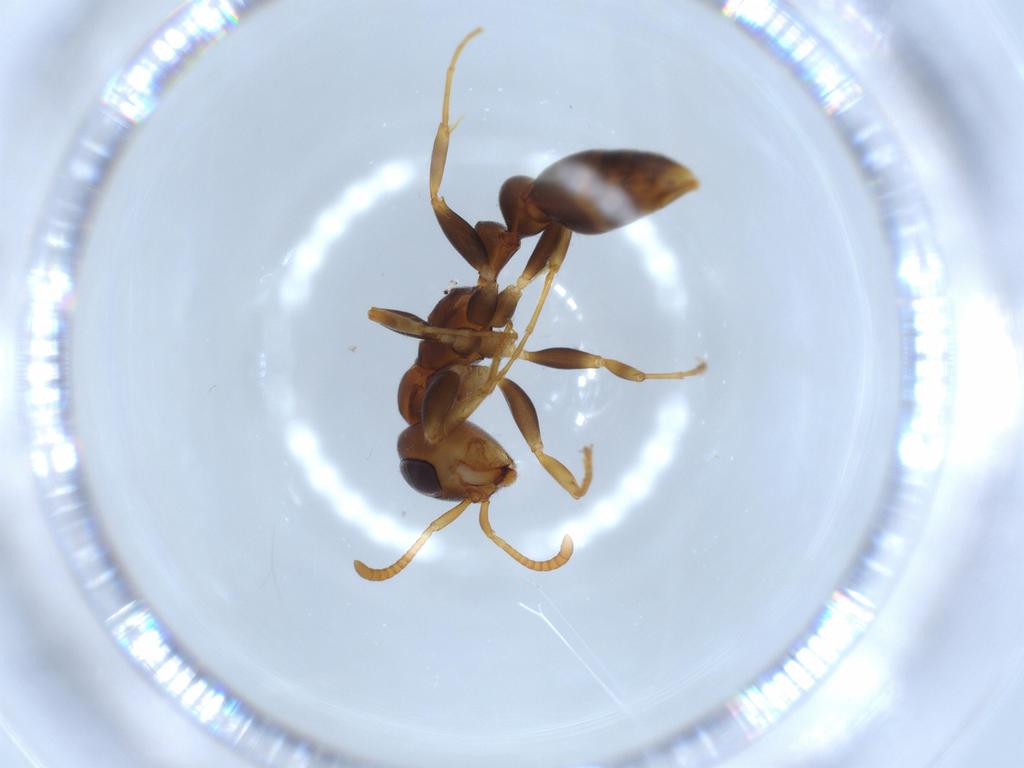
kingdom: Animalia
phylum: Arthropoda
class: Insecta
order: Hymenoptera
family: Formicidae
